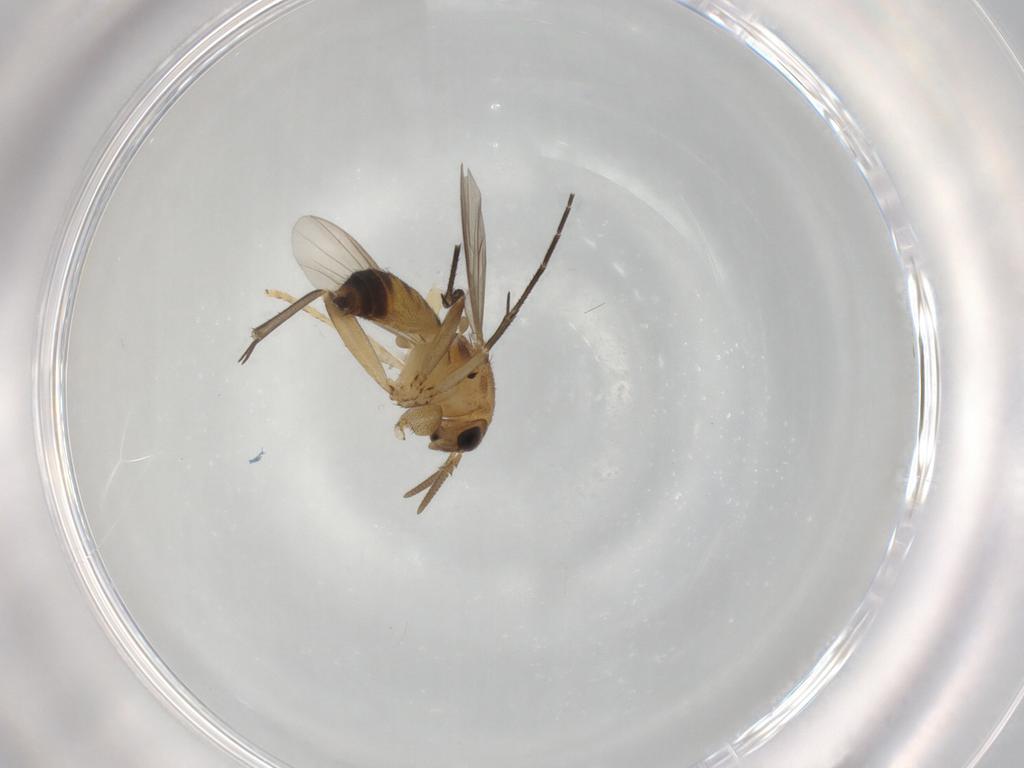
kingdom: Animalia
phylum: Arthropoda
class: Insecta
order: Diptera
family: Mycetophilidae
